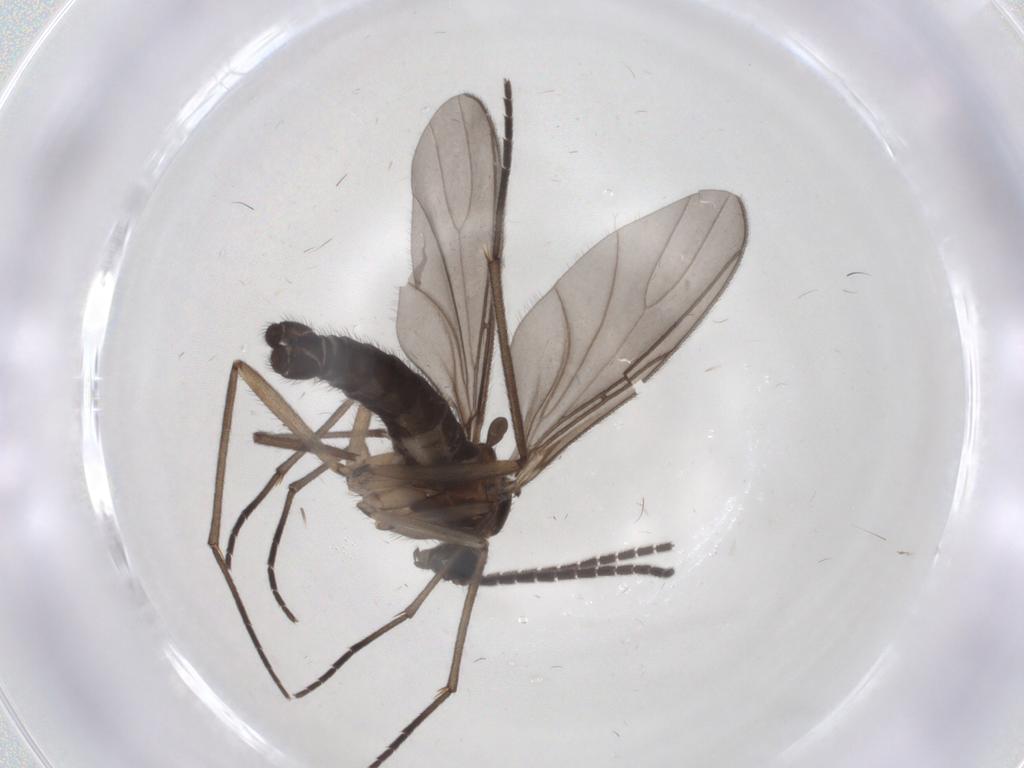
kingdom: Animalia
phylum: Arthropoda
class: Insecta
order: Diptera
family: Sciaridae
